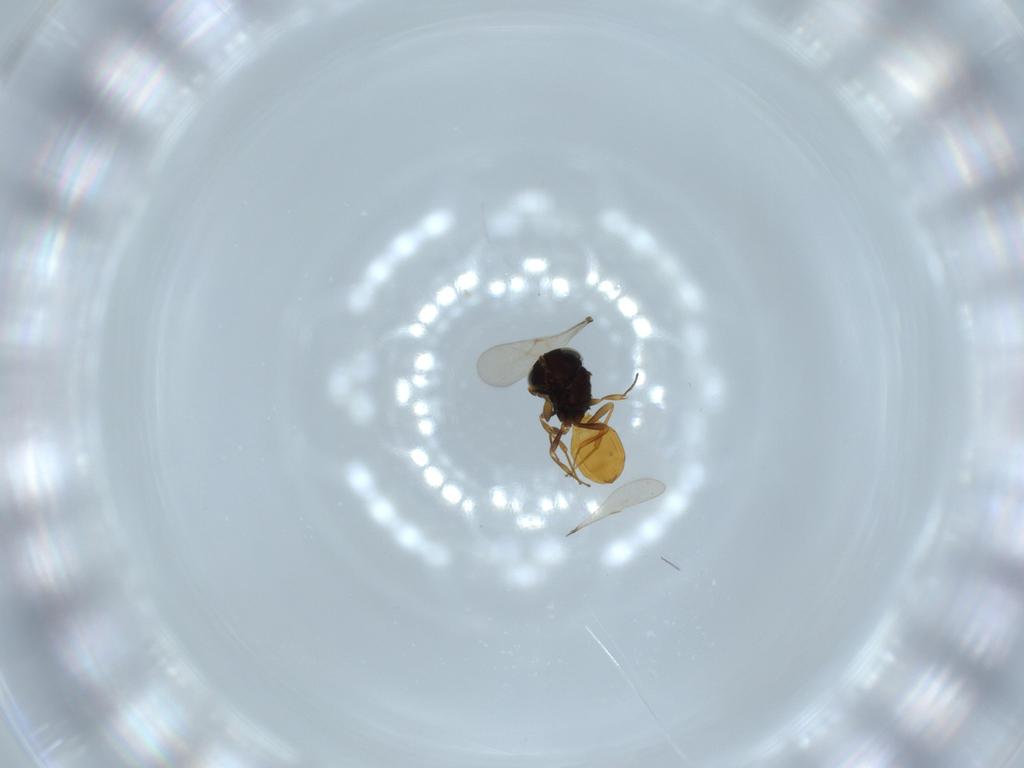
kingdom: Animalia
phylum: Arthropoda
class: Insecta
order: Hymenoptera
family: Scelionidae
